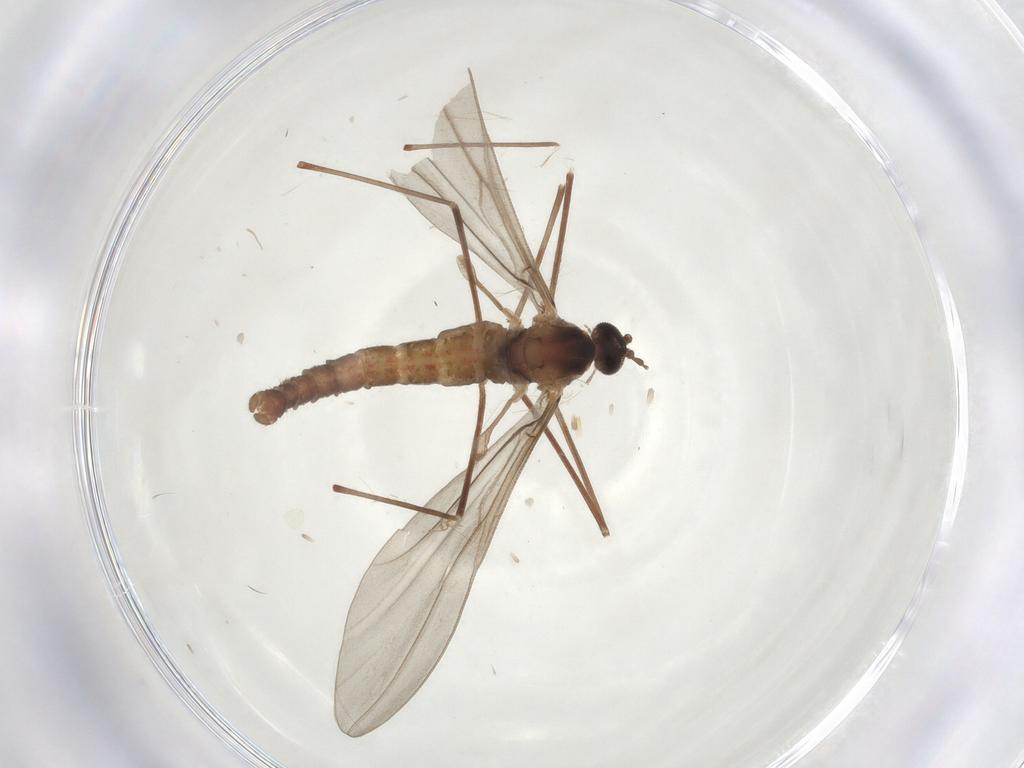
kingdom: Animalia
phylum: Arthropoda
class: Insecta
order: Diptera
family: Cecidomyiidae
